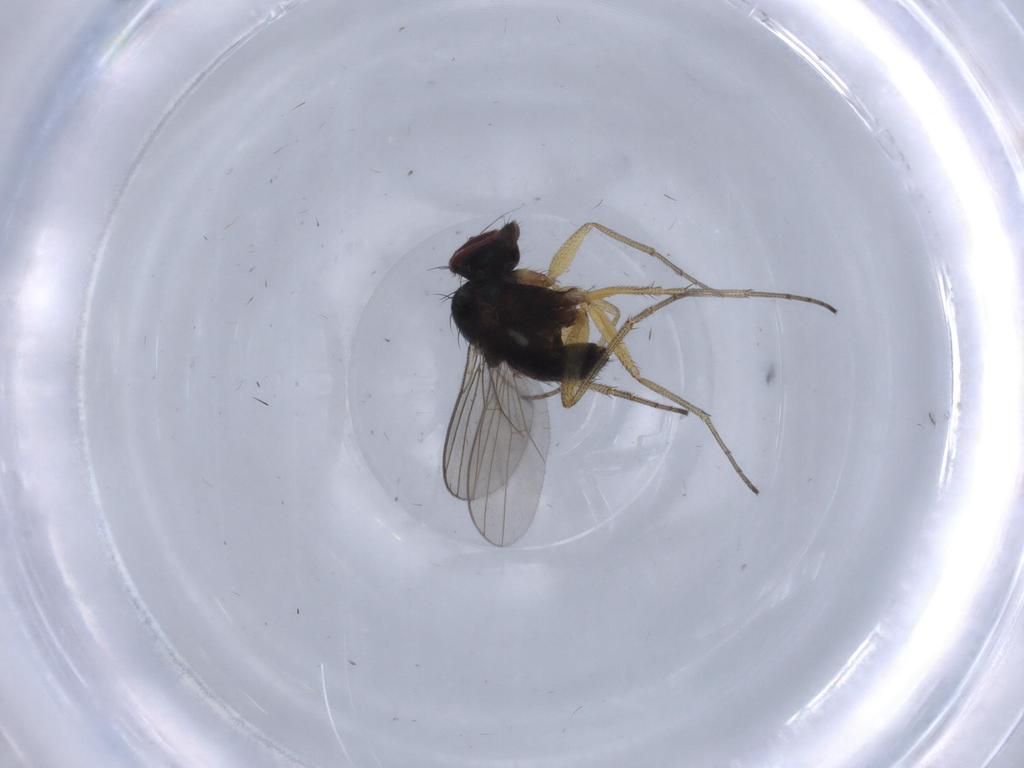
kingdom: Animalia
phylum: Arthropoda
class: Insecta
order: Diptera
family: Dolichopodidae
